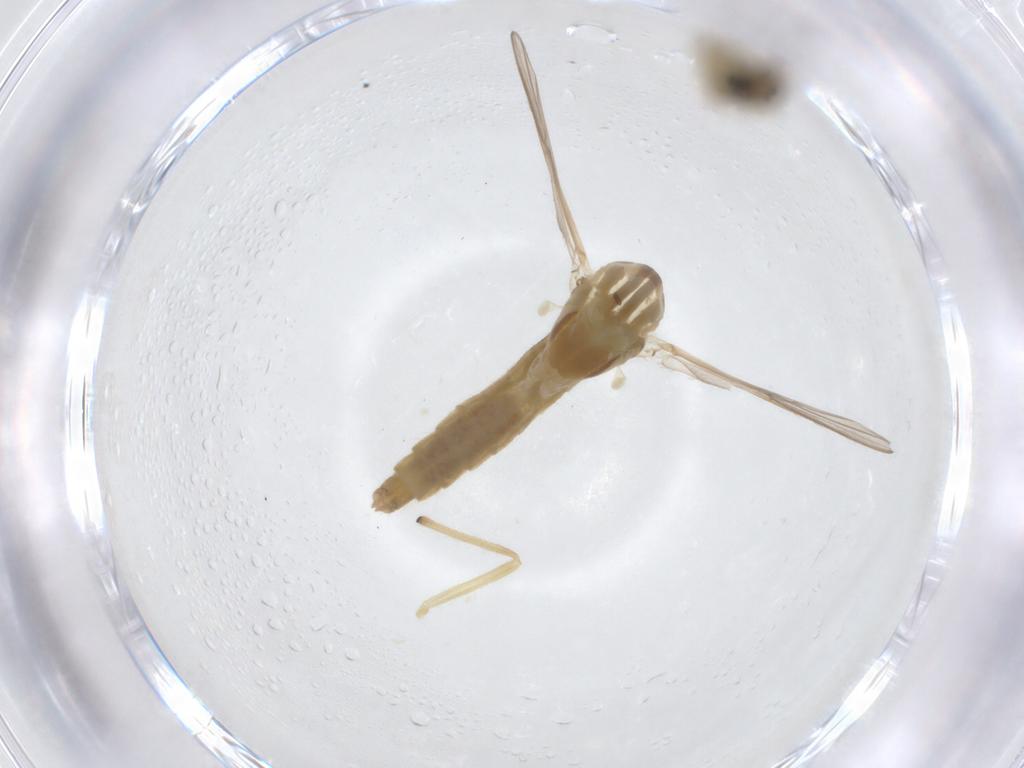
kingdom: Animalia
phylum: Arthropoda
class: Insecta
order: Diptera
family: Chironomidae
